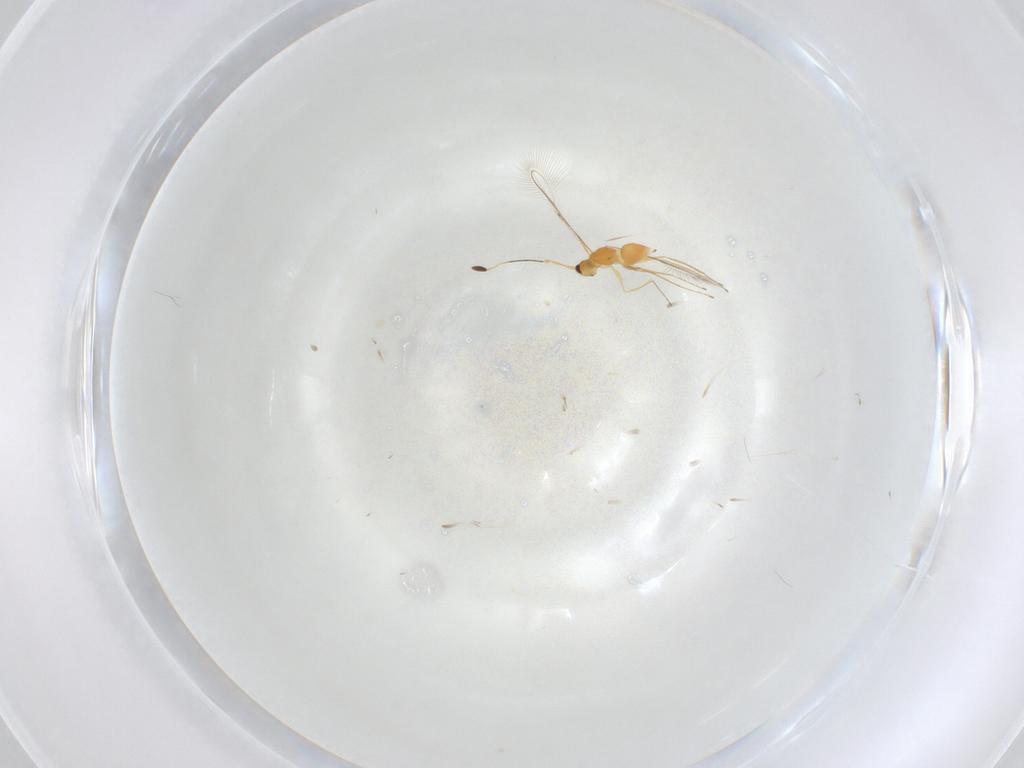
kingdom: Animalia
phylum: Arthropoda
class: Insecta
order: Hymenoptera
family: Mymaridae
